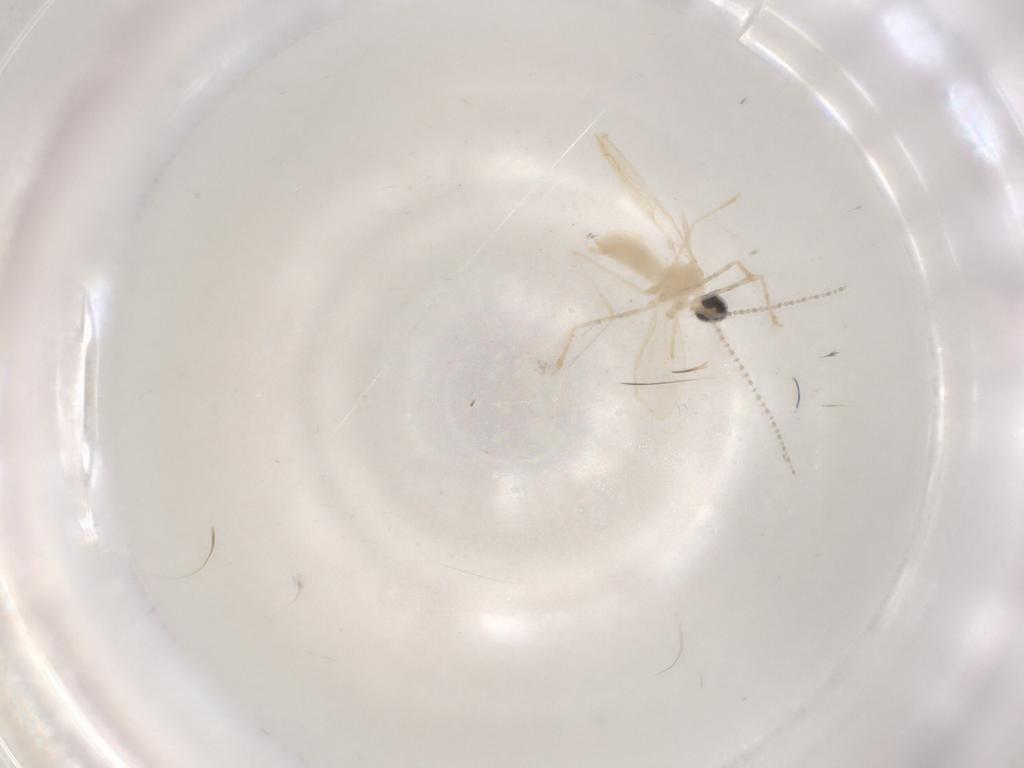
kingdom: Animalia
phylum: Arthropoda
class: Insecta
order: Diptera
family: Cecidomyiidae
